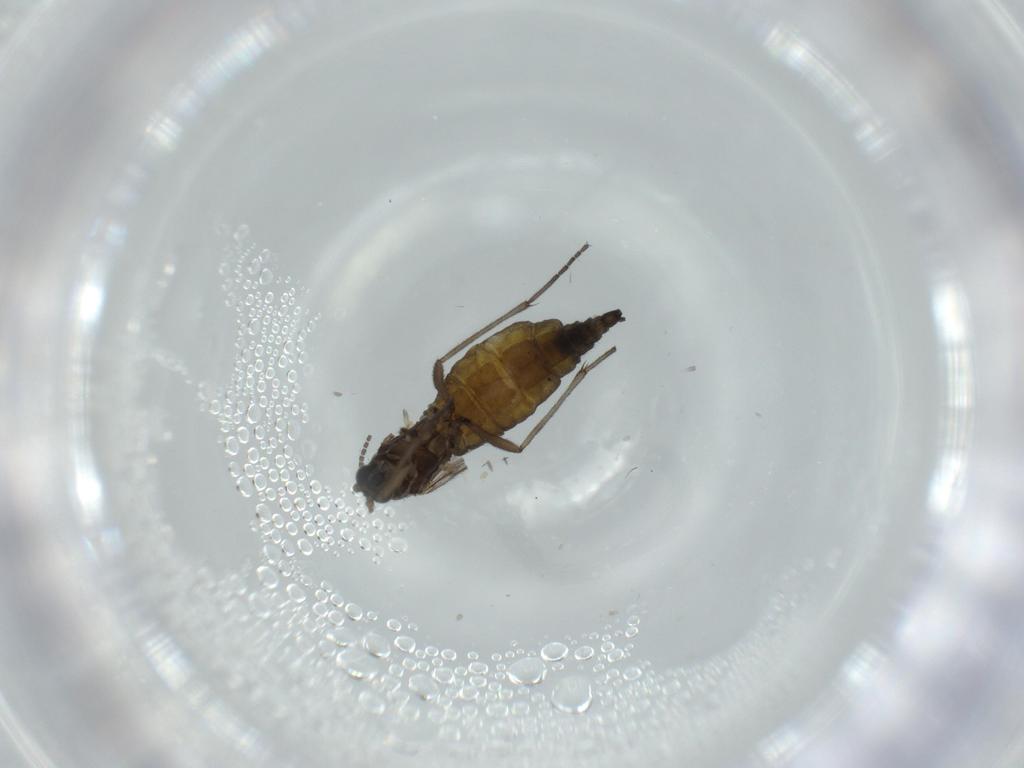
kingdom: Animalia
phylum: Arthropoda
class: Insecta
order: Diptera
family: Sciaridae
